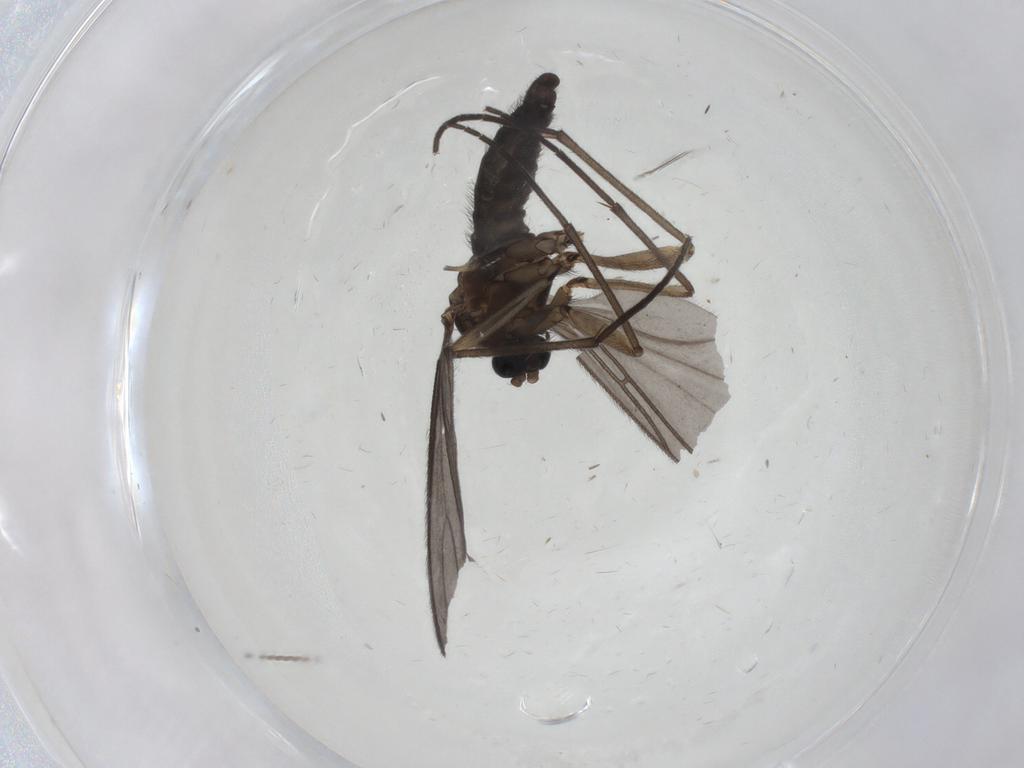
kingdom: Animalia
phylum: Arthropoda
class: Insecta
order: Diptera
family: Sciaridae
